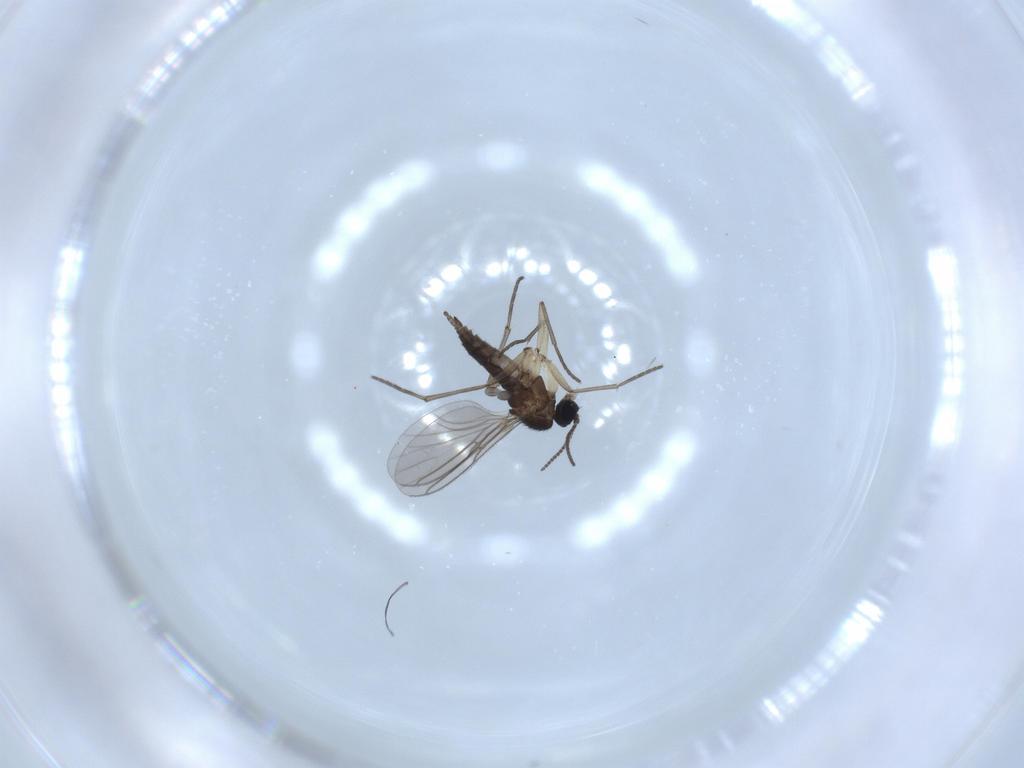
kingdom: Animalia
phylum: Arthropoda
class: Insecta
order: Diptera
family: Sciaridae
